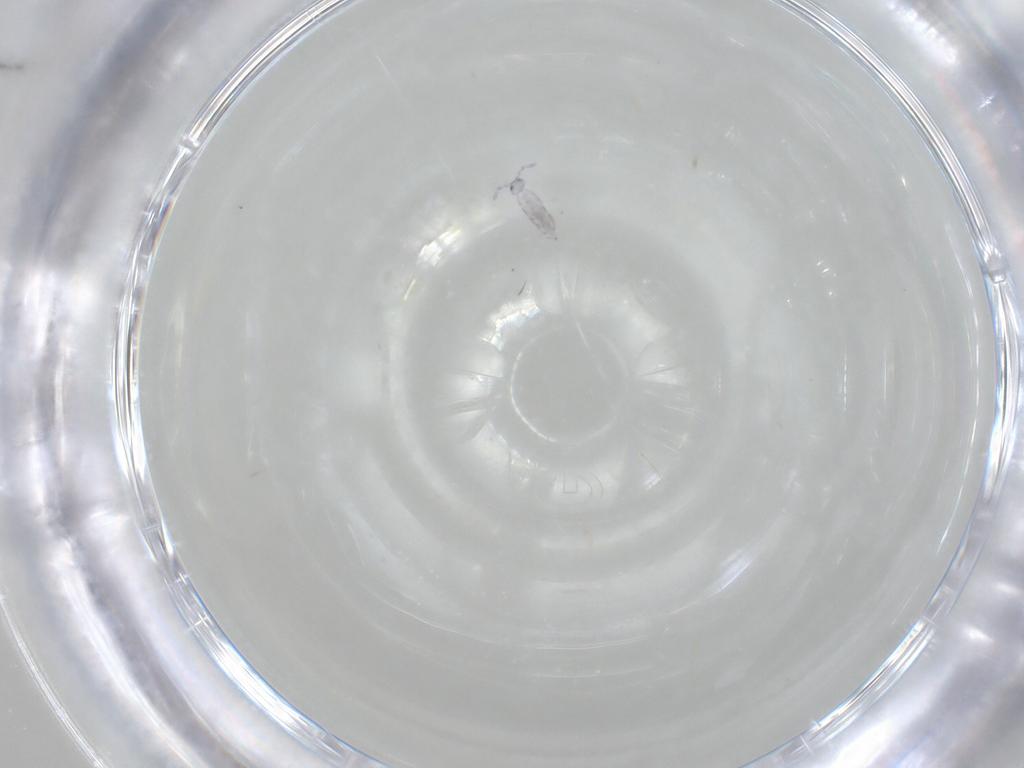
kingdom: Animalia
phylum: Arthropoda
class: Collembola
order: Entomobryomorpha
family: Entomobryidae
